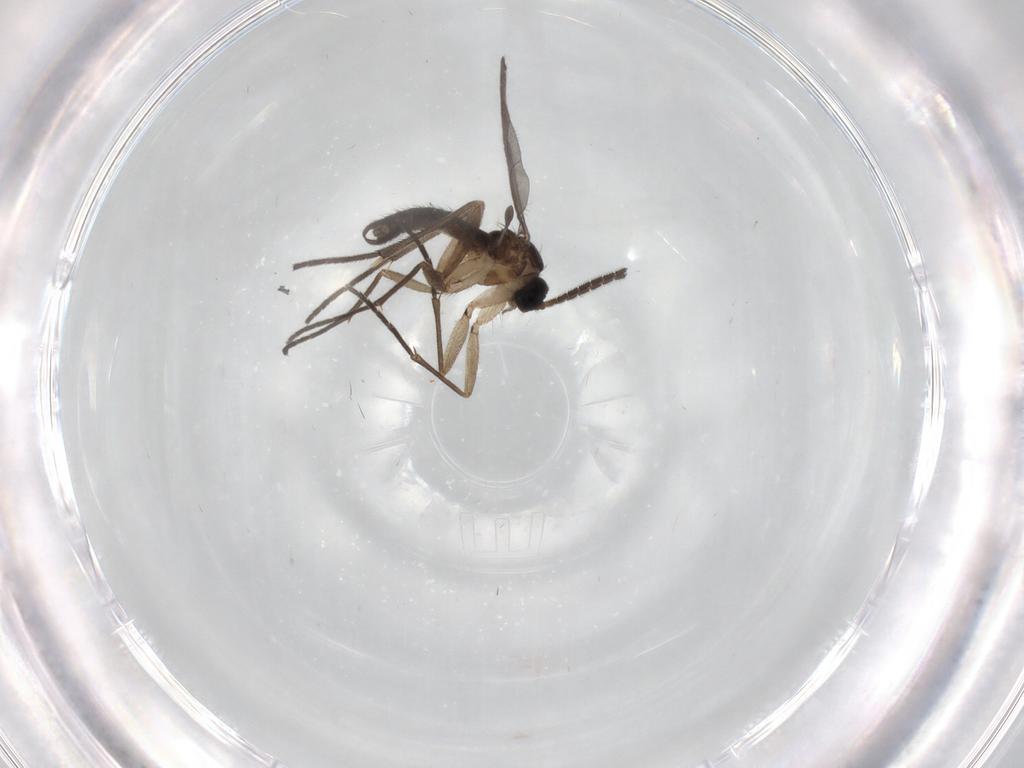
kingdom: Animalia
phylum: Arthropoda
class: Insecta
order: Diptera
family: Sciaridae
